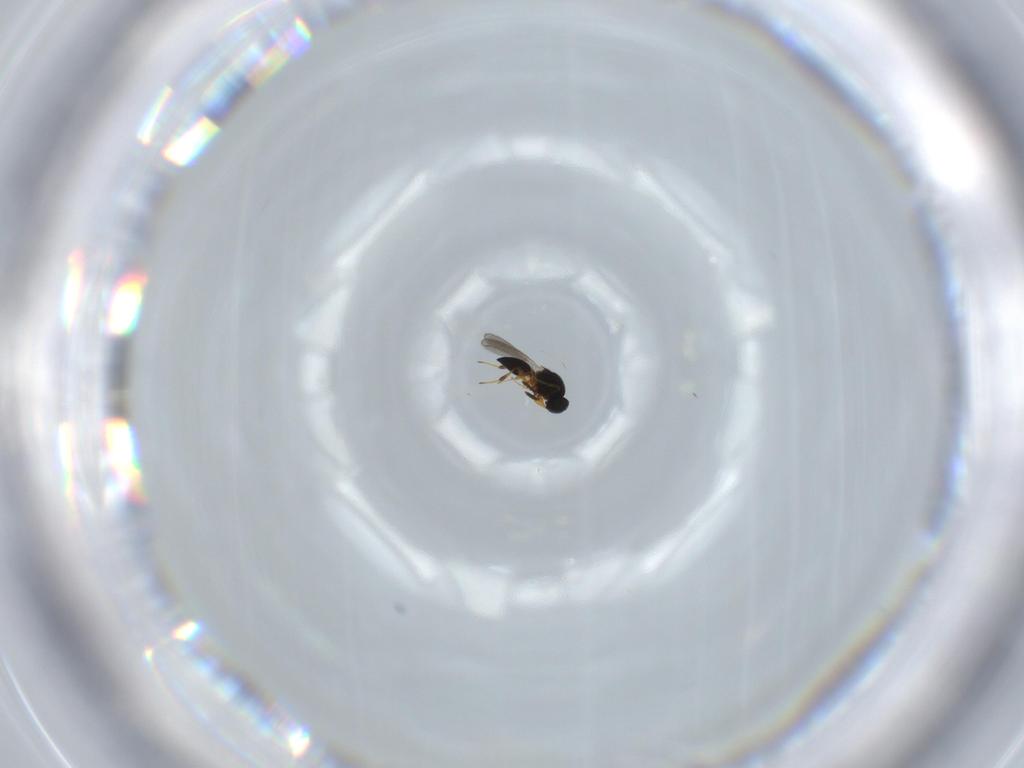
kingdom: Animalia
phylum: Arthropoda
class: Insecta
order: Hymenoptera
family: Platygastridae
